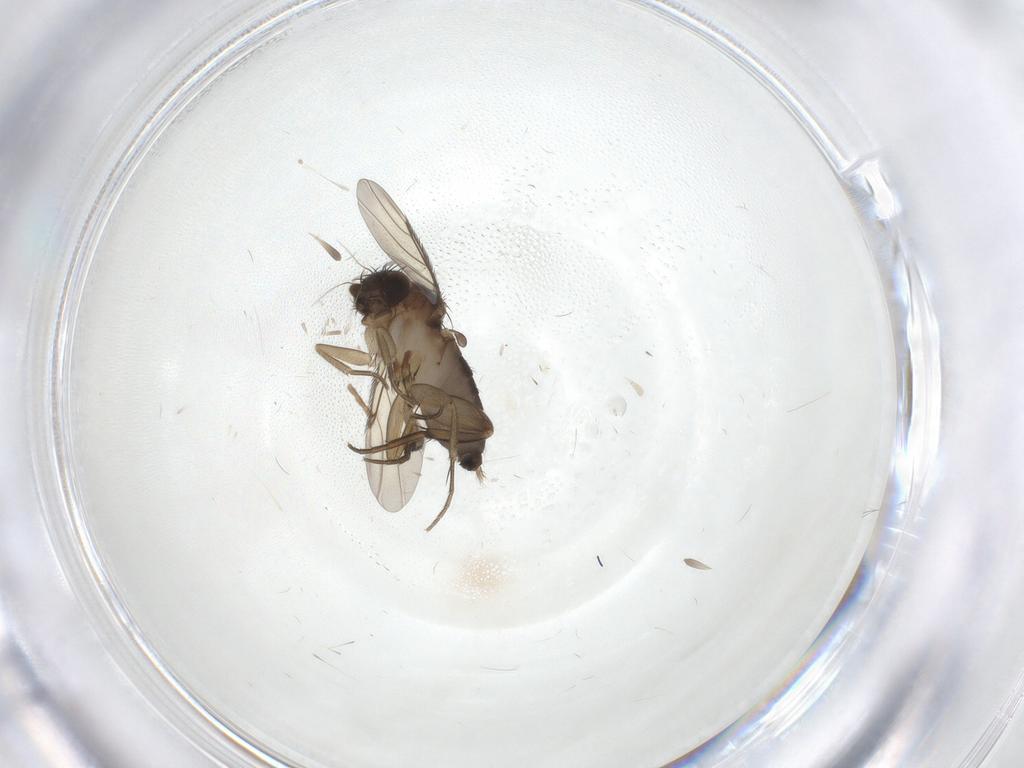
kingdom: Animalia
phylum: Arthropoda
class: Insecta
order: Diptera
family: Phoridae
